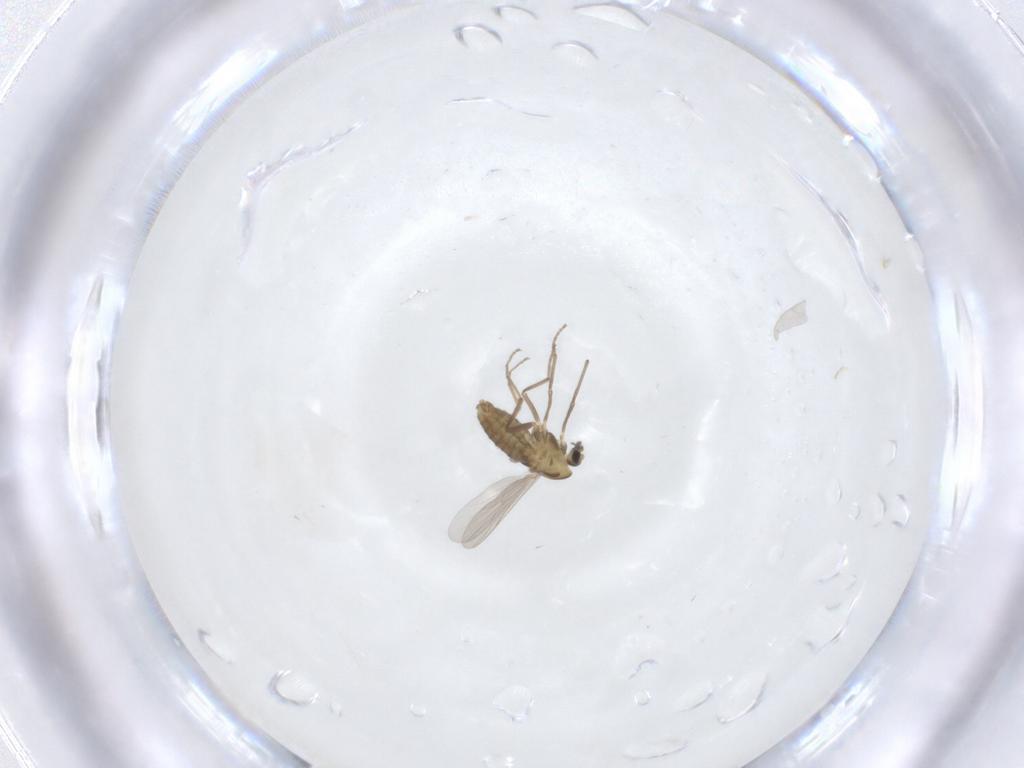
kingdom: Animalia
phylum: Arthropoda
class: Insecta
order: Diptera
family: Chironomidae
